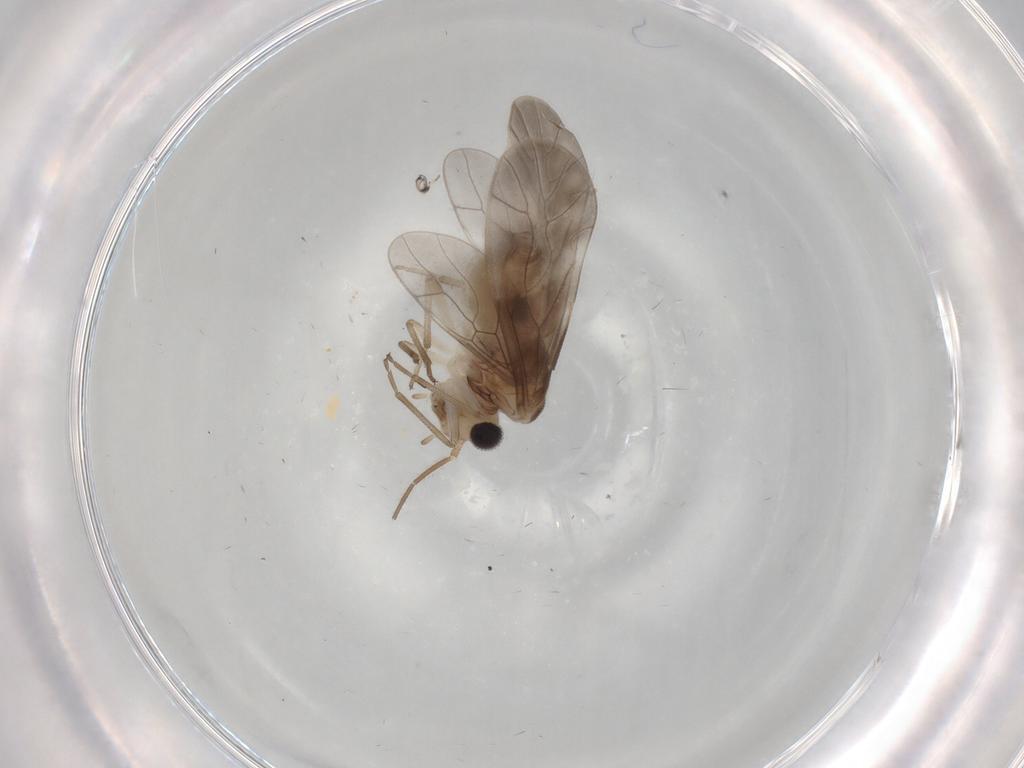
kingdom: Animalia
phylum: Arthropoda
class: Insecta
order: Psocodea
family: Caeciliusidae
